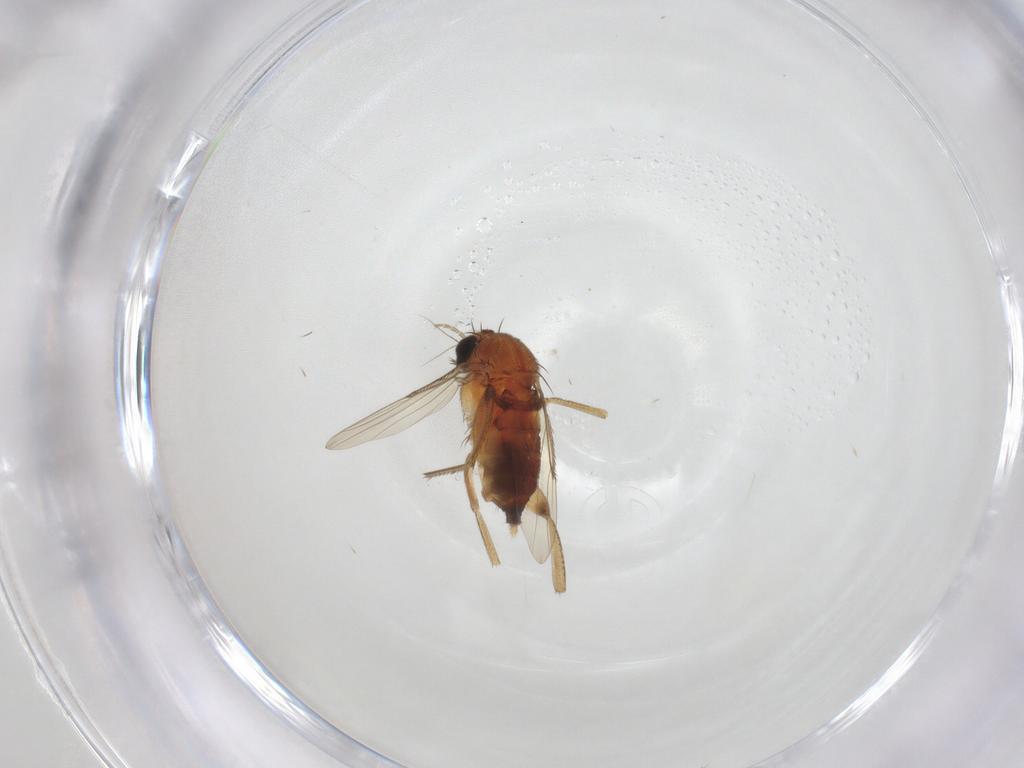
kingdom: Animalia
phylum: Arthropoda
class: Insecta
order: Diptera
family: Phoridae
